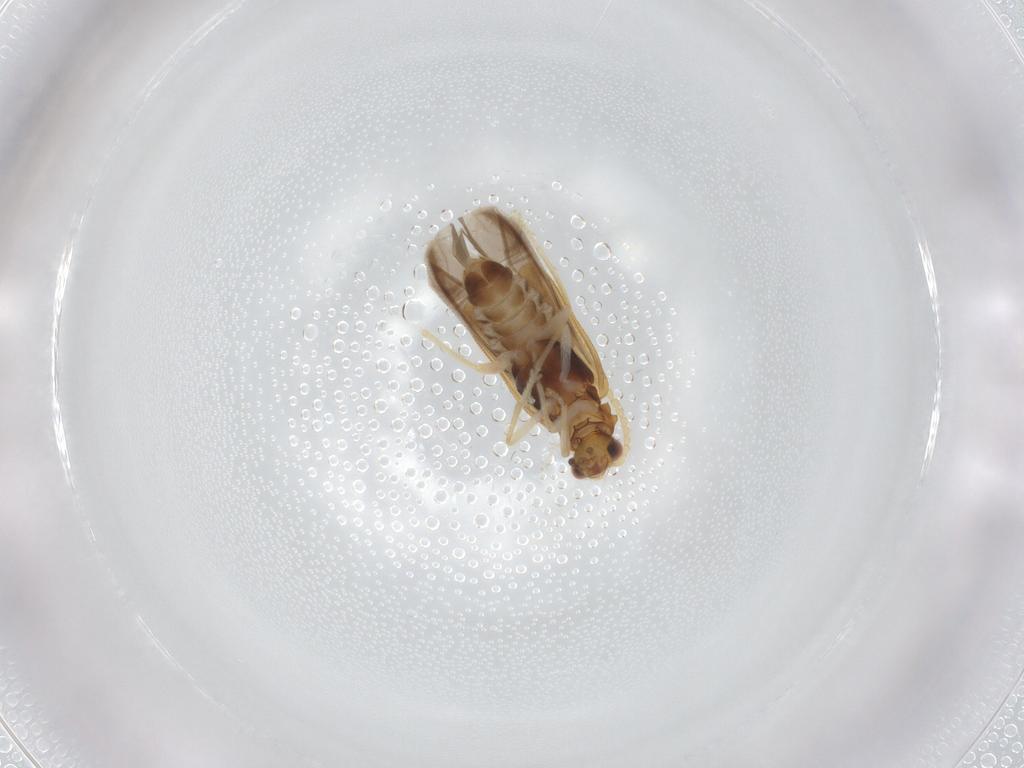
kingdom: Animalia
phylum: Arthropoda
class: Insecta
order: Coleoptera
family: Cantharidae
